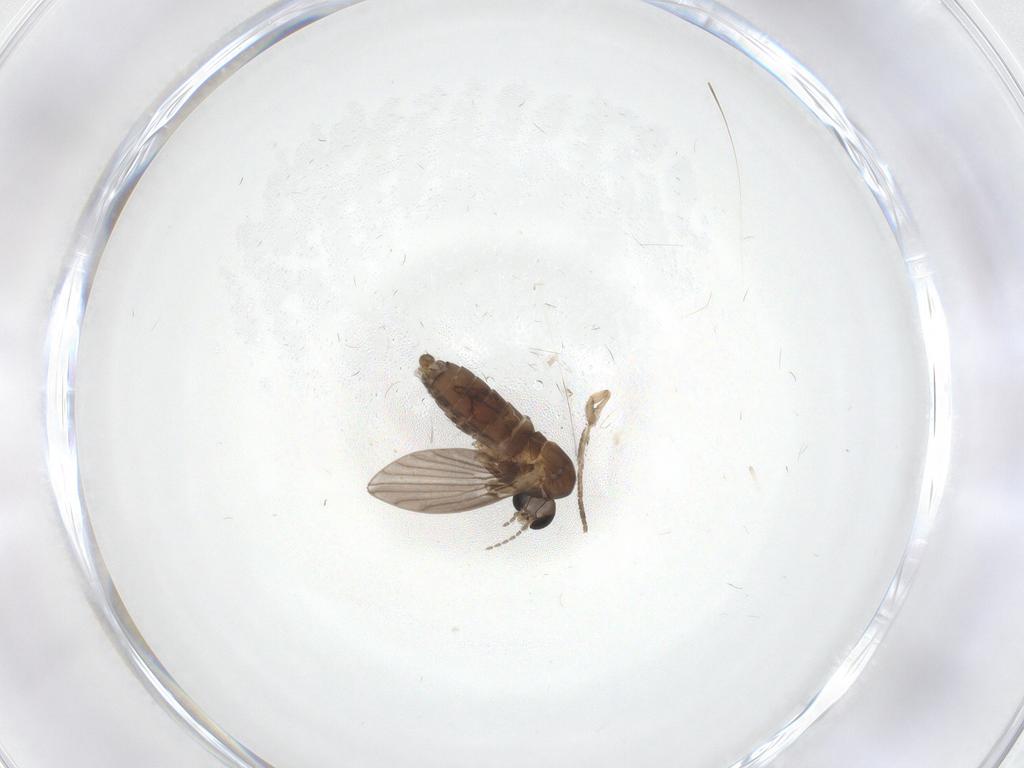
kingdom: Animalia
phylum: Arthropoda
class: Insecta
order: Diptera
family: Psychodidae
